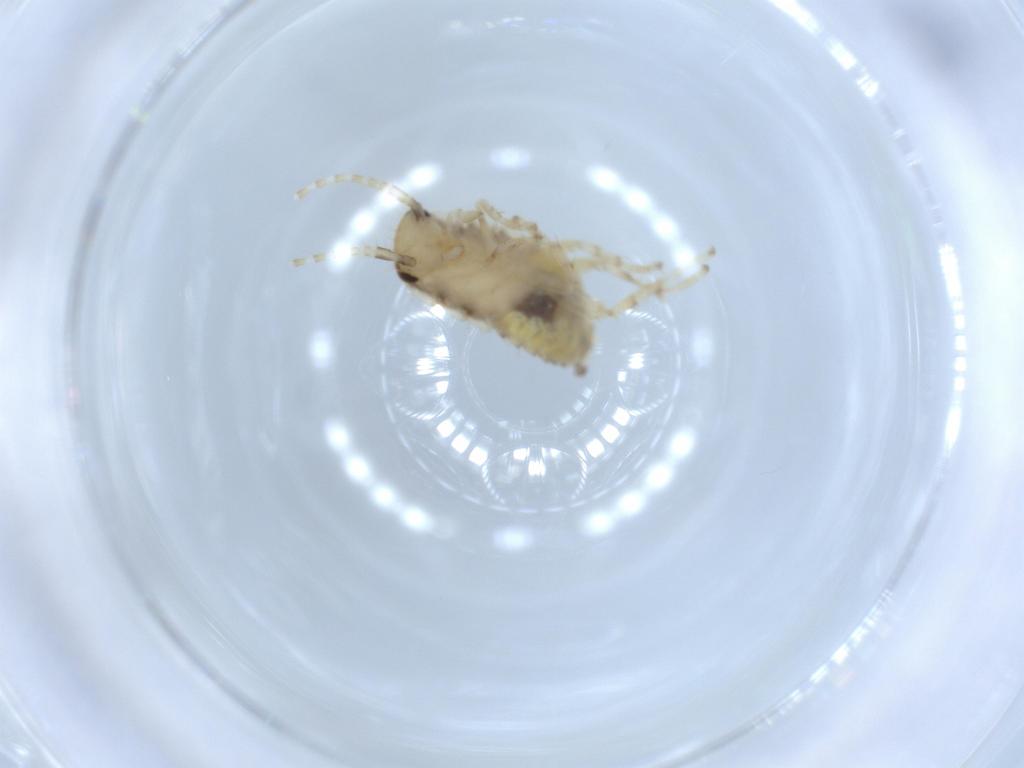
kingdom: Animalia
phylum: Arthropoda
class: Insecta
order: Blattodea
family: Ectobiidae
